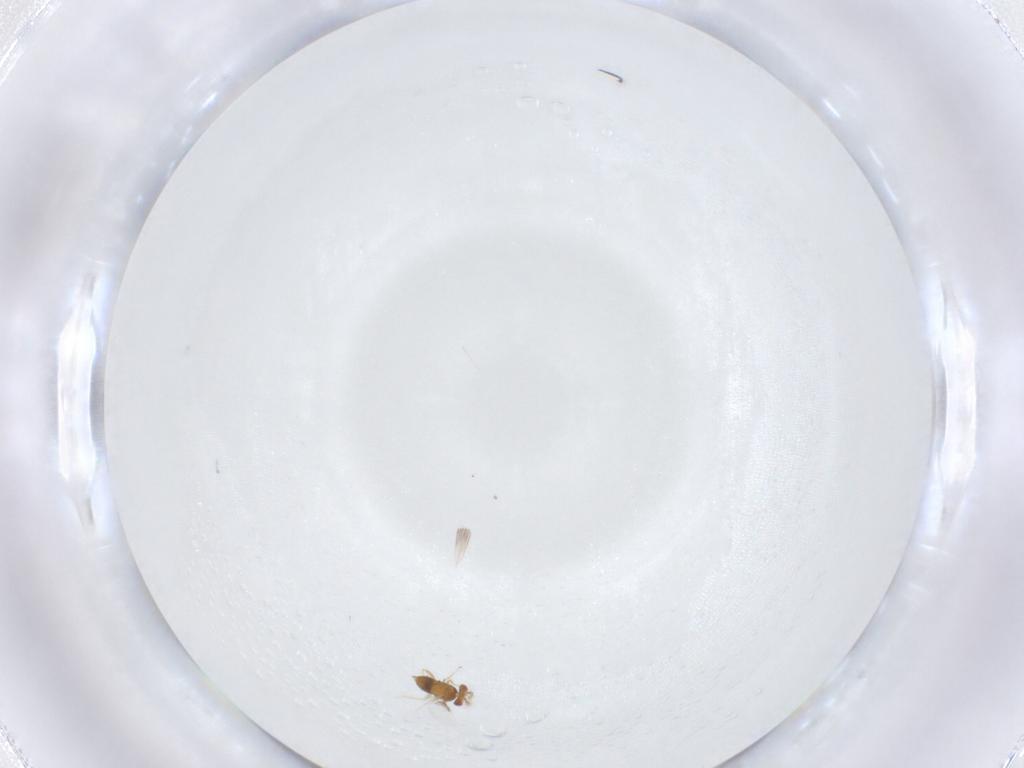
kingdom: Animalia
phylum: Arthropoda
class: Insecta
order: Hymenoptera
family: Trichogrammatidae
